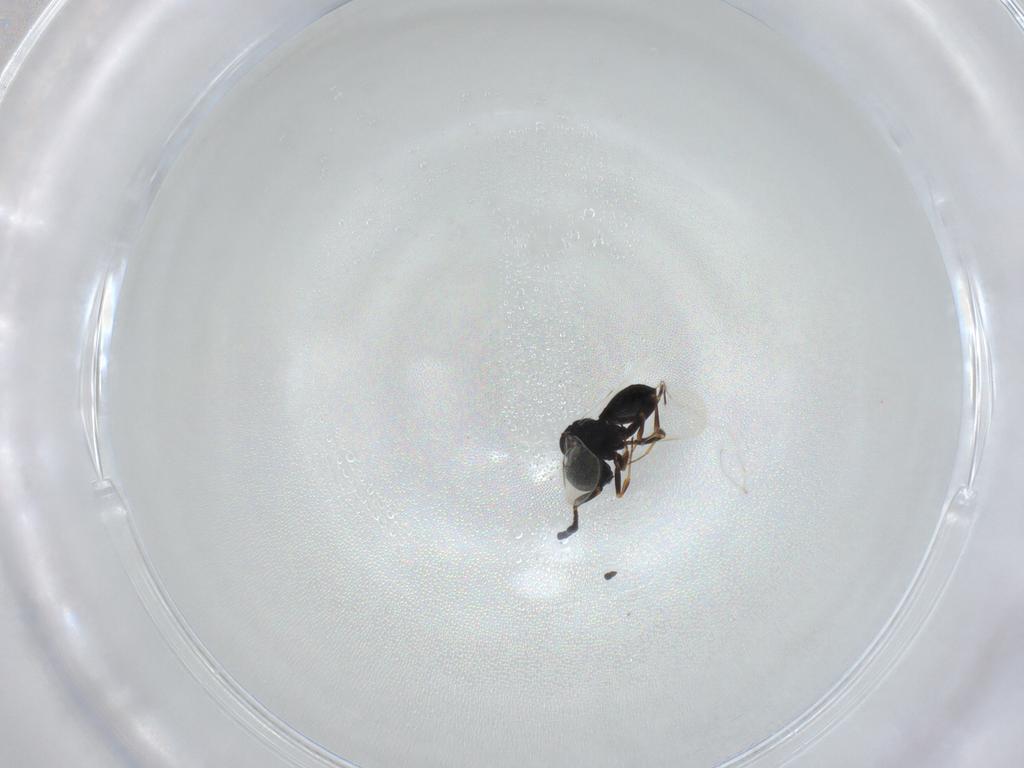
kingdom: Animalia
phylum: Arthropoda
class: Insecta
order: Hymenoptera
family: Scelionidae
